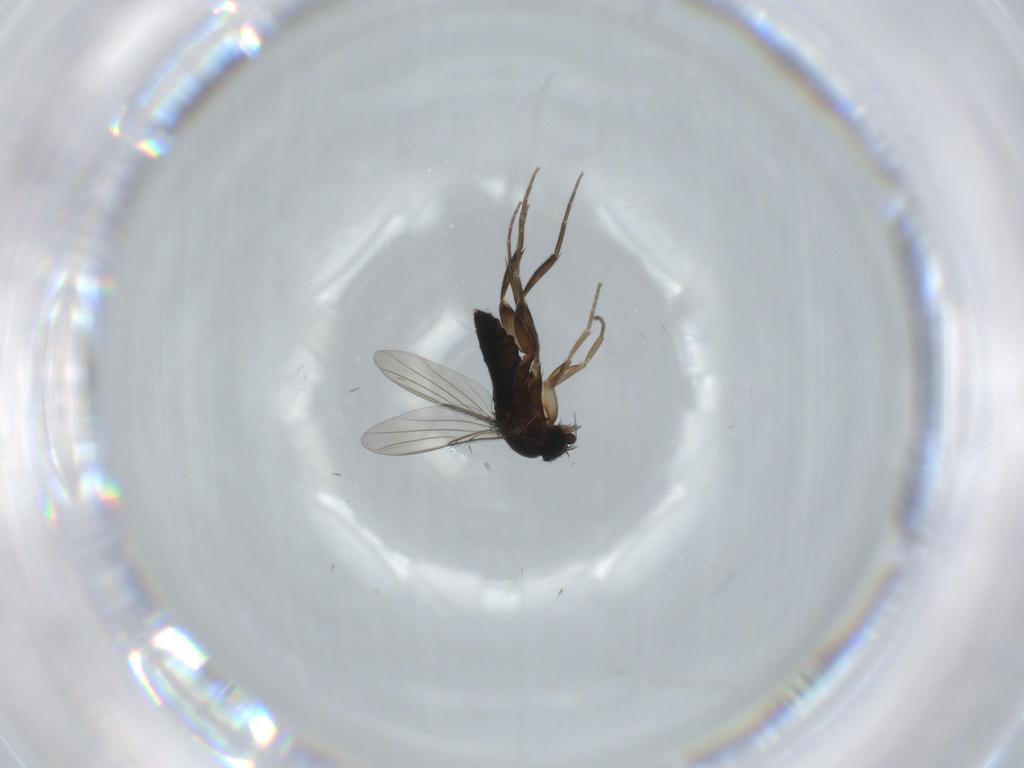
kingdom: Animalia
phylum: Arthropoda
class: Insecta
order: Diptera
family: Phoridae
